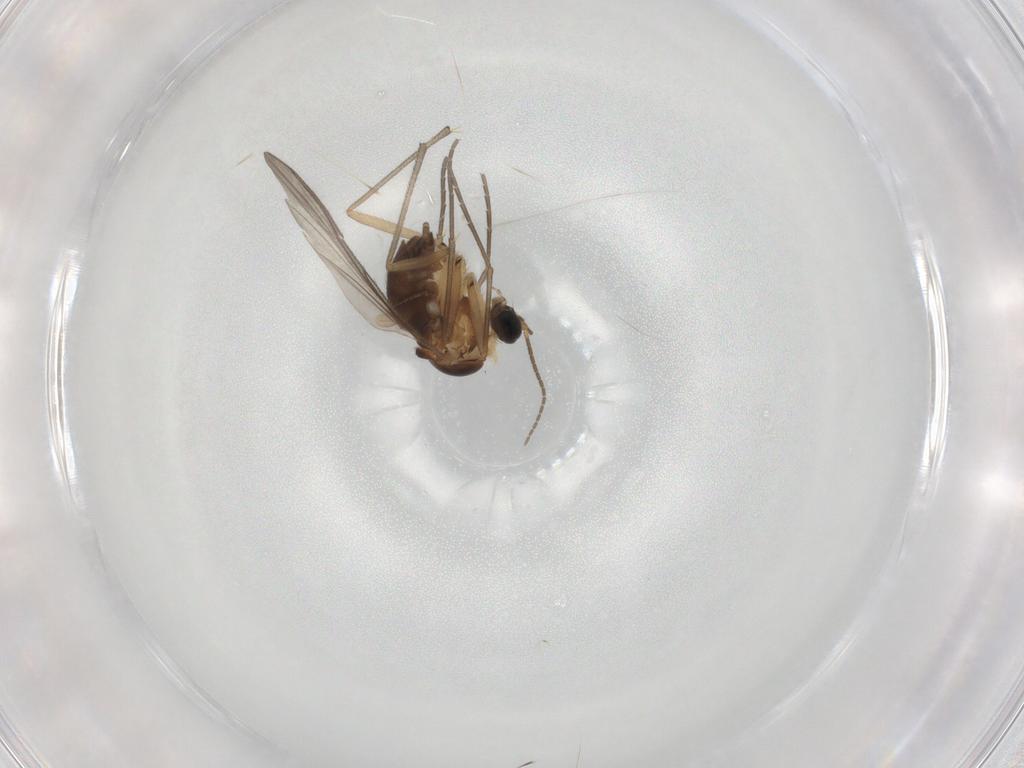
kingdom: Animalia
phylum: Arthropoda
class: Insecta
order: Diptera
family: Sciaridae
